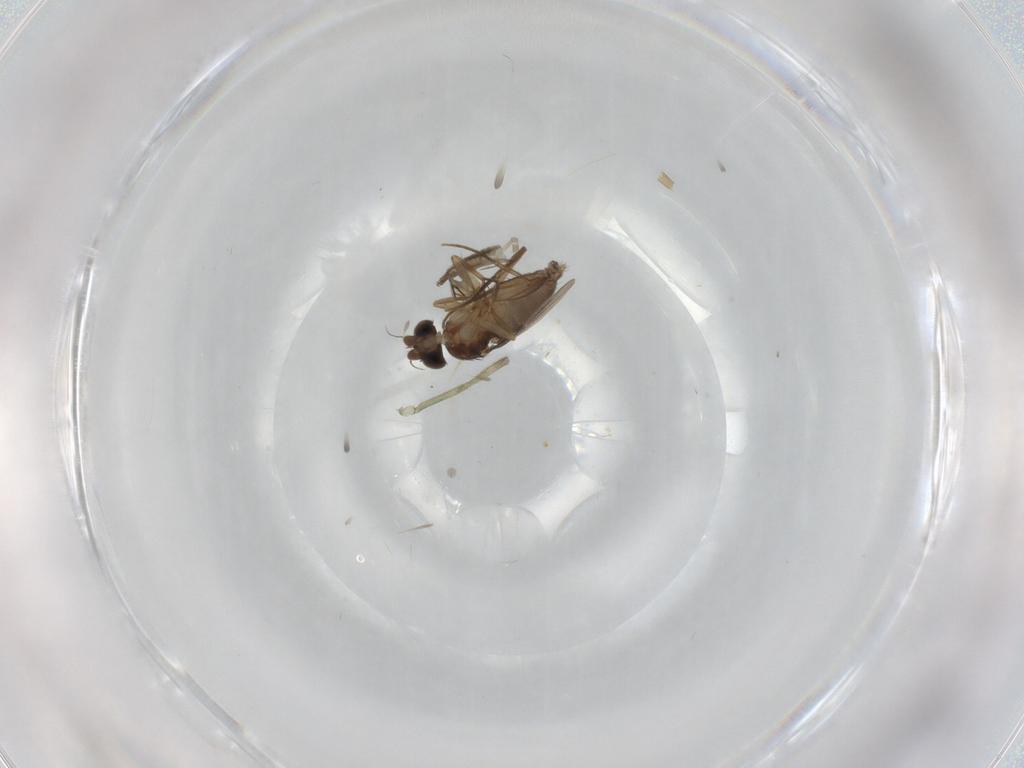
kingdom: Animalia
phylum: Arthropoda
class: Insecta
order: Diptera
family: Phoridae
